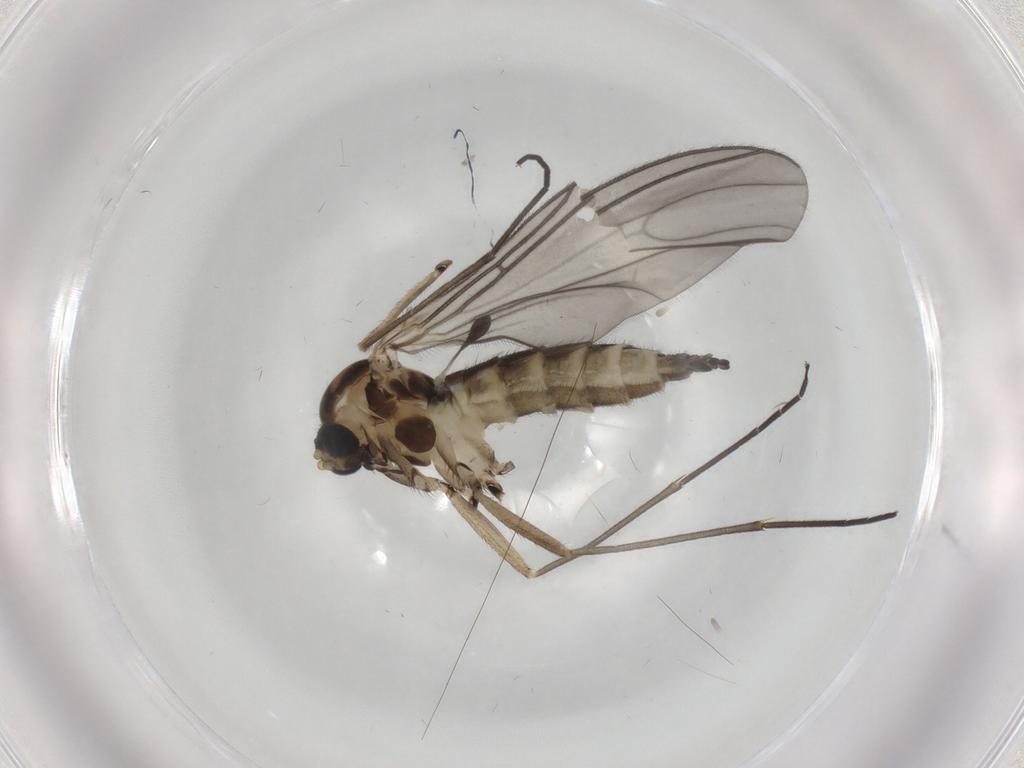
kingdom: Animalia
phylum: Arthropoda
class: Insecta
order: Diptera
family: Sciaridae
